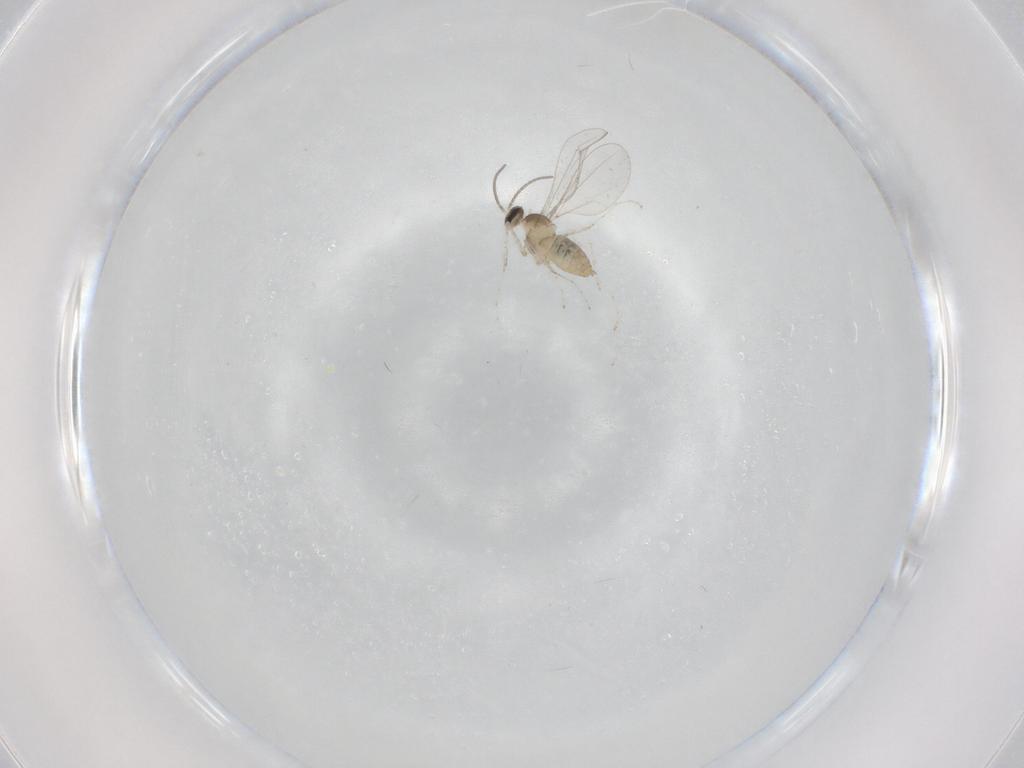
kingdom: Animalia
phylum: Arthropoda
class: Insecta
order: Diptera
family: Cecidomyiidae
